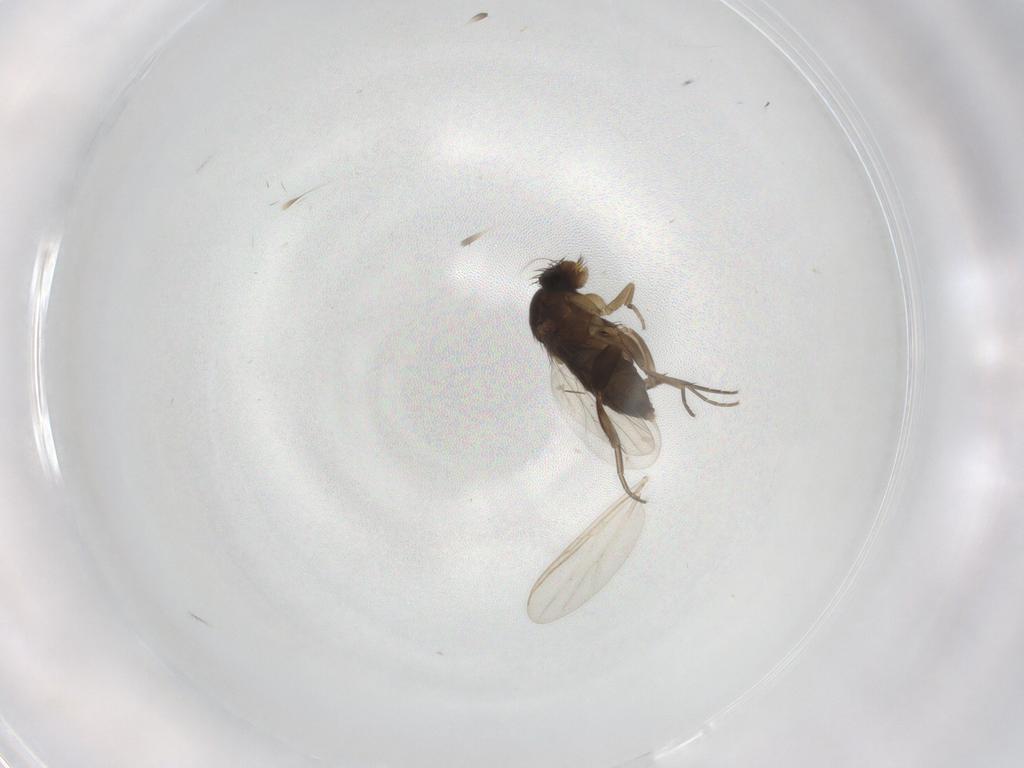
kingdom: Animalia
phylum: Arthropoda
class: Insecta
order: Diptera
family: Phoridae
